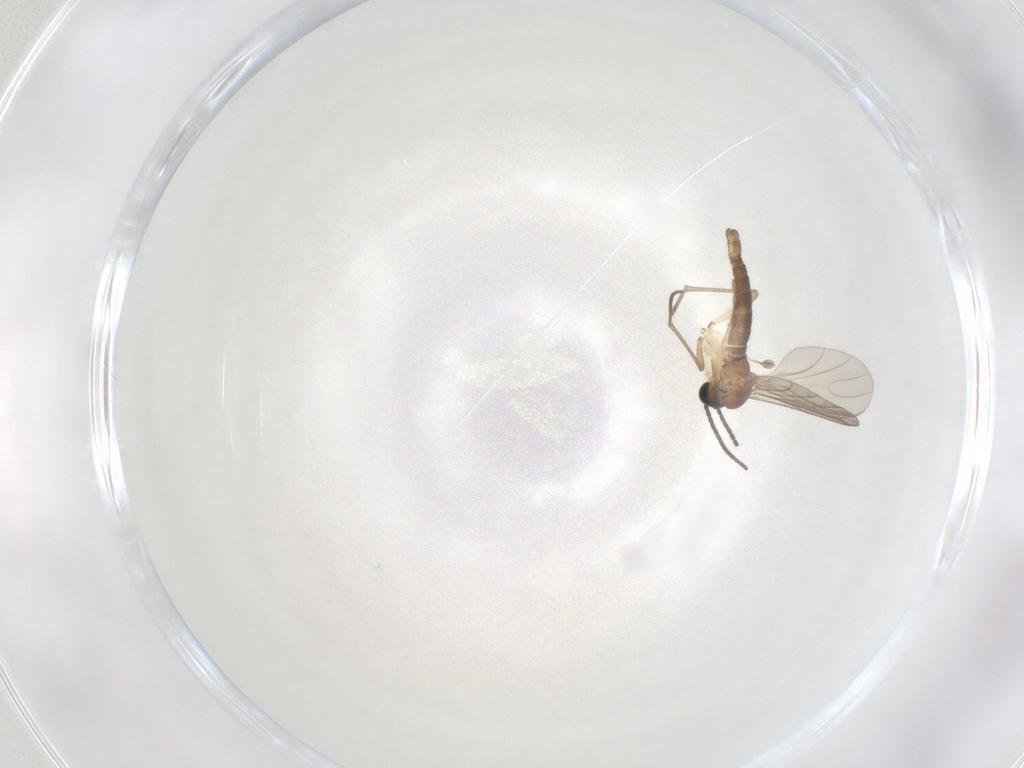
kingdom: Animalia
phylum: Arthropoda
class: Insecta
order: Diptera
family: Sciaridae
